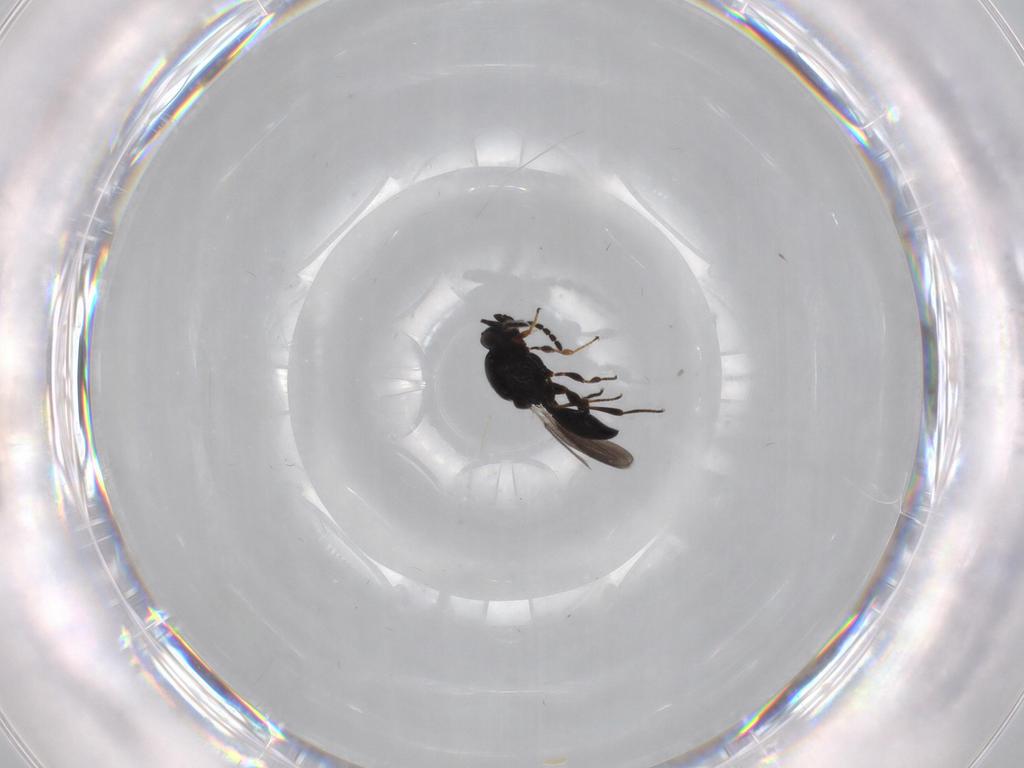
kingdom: Animalia
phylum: Arthropoda
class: Insecta
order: Hymenoptera
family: Platygastridae
